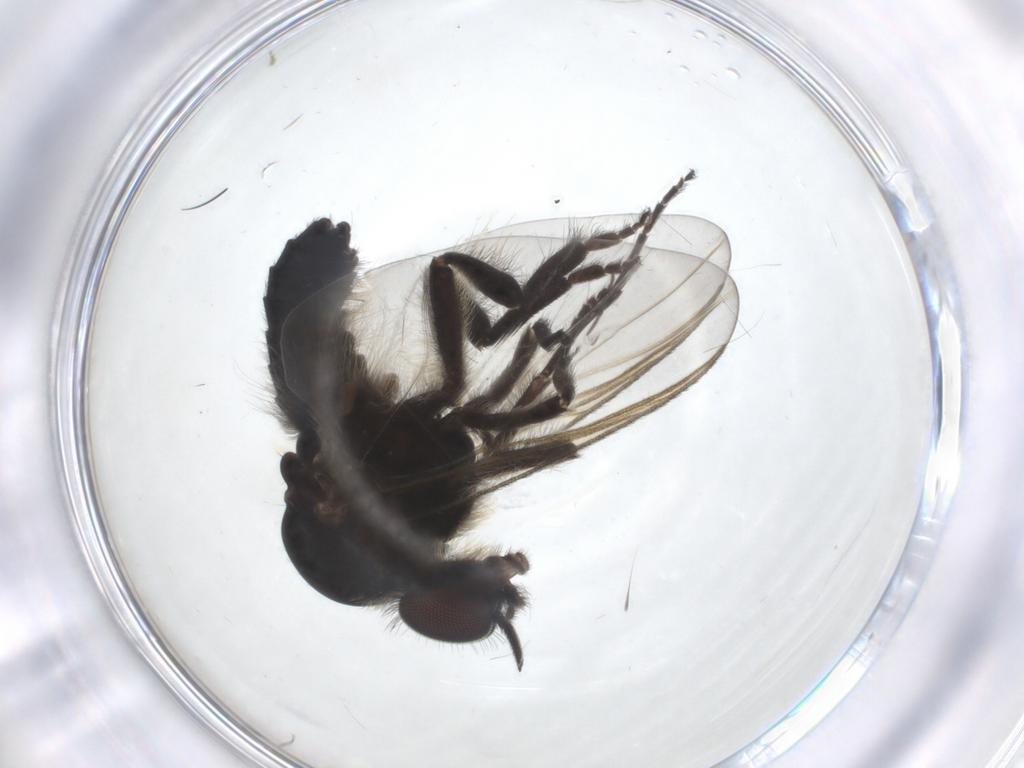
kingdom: Animalia
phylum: Arthropoda
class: Insecta
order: Diptera
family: Simuliidae
